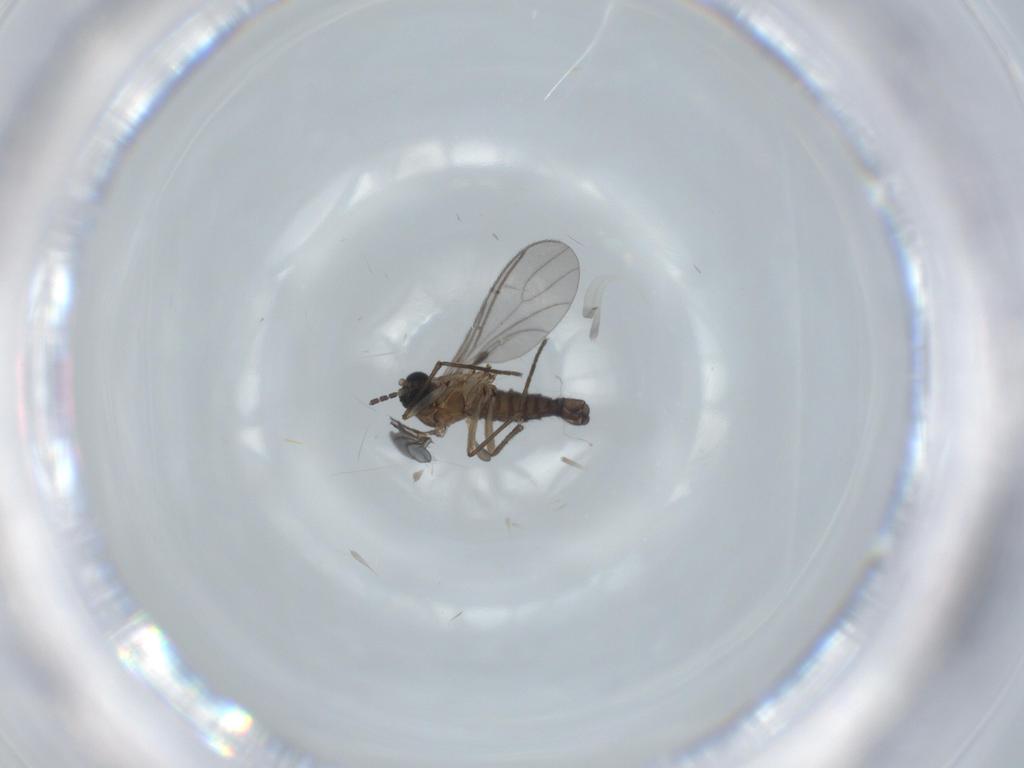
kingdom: Animalia
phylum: Arthropoda
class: Insecta
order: Diptera
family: Sciaridae
